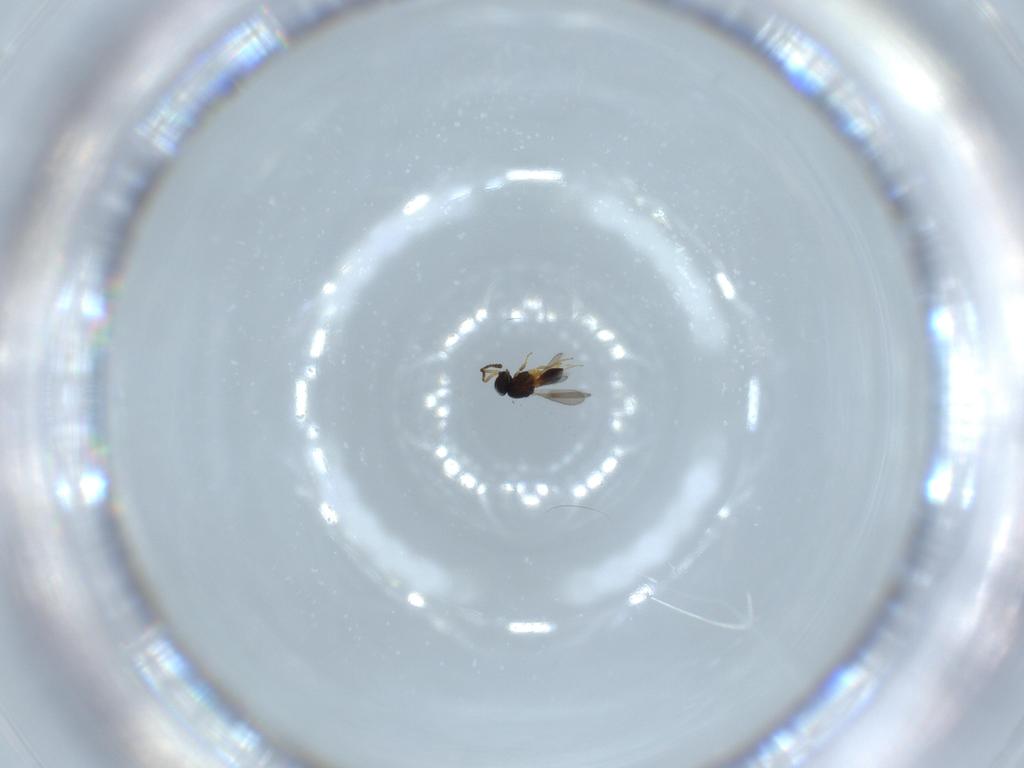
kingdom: Animalia
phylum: Arthropoda
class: Insecta
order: Hymenoptera
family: Scelionidae
